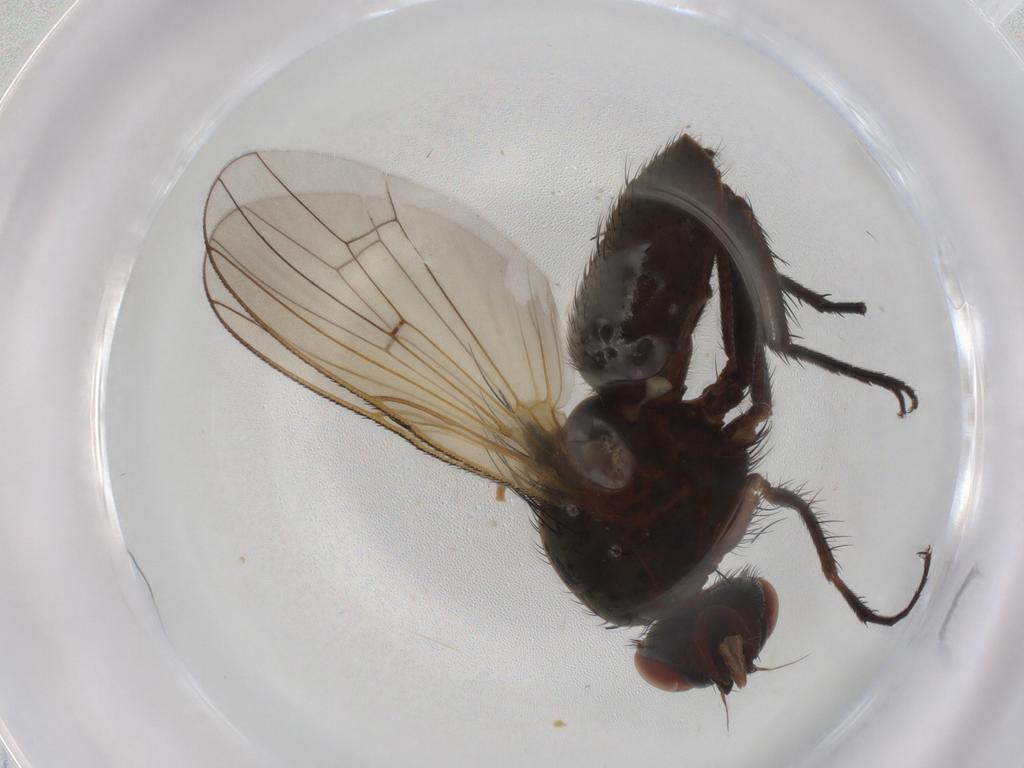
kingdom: Animalia
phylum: Arthropoda
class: Insecta
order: Diptera
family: Anthomyiidae
